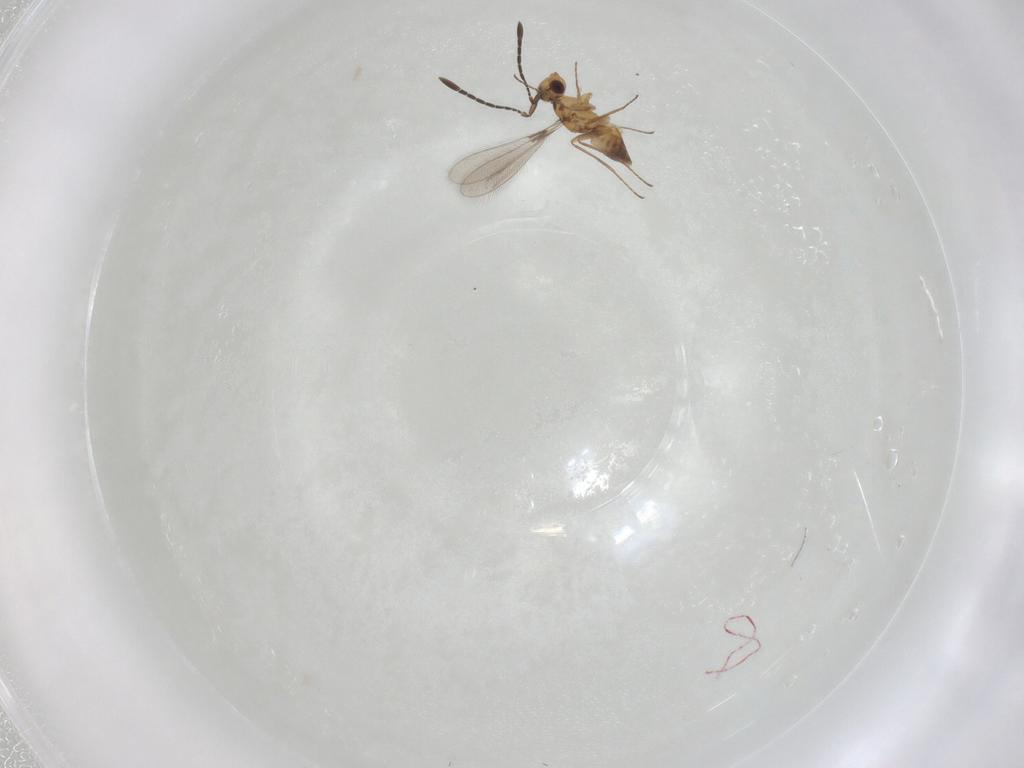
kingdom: Animalia
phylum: Arthropoda
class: Insecta
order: Hymenoptera
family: Mymaridae
